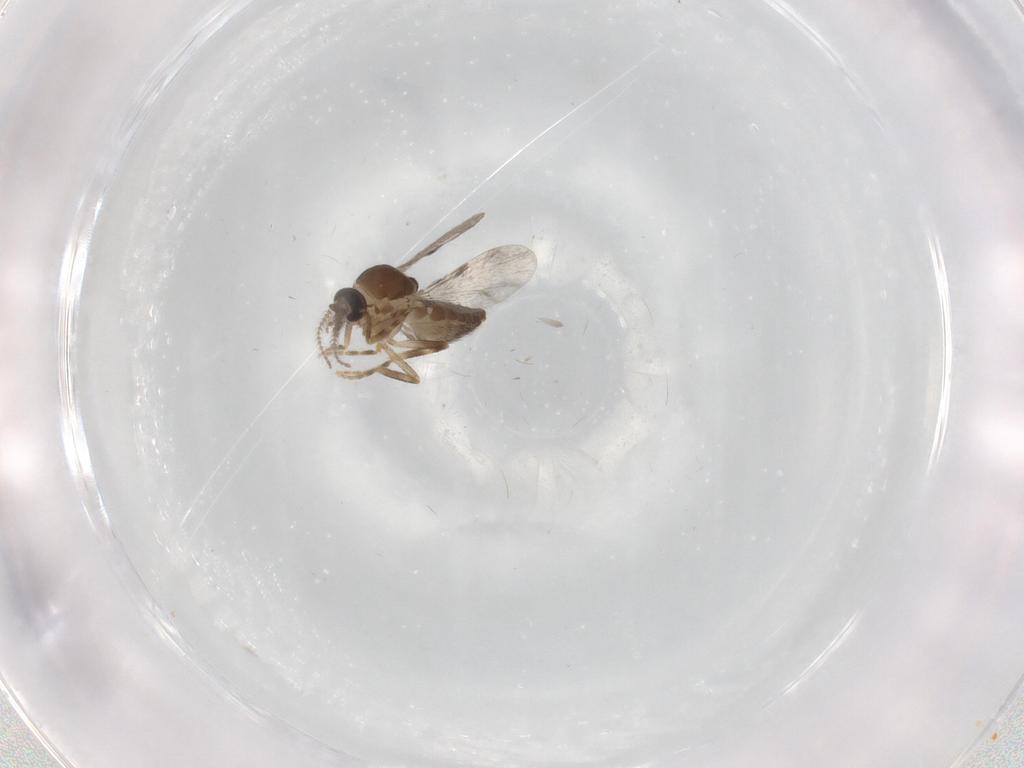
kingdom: Animalia
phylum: Arthropoda
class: Insecta
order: Diptera
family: Ceratopogonidae
